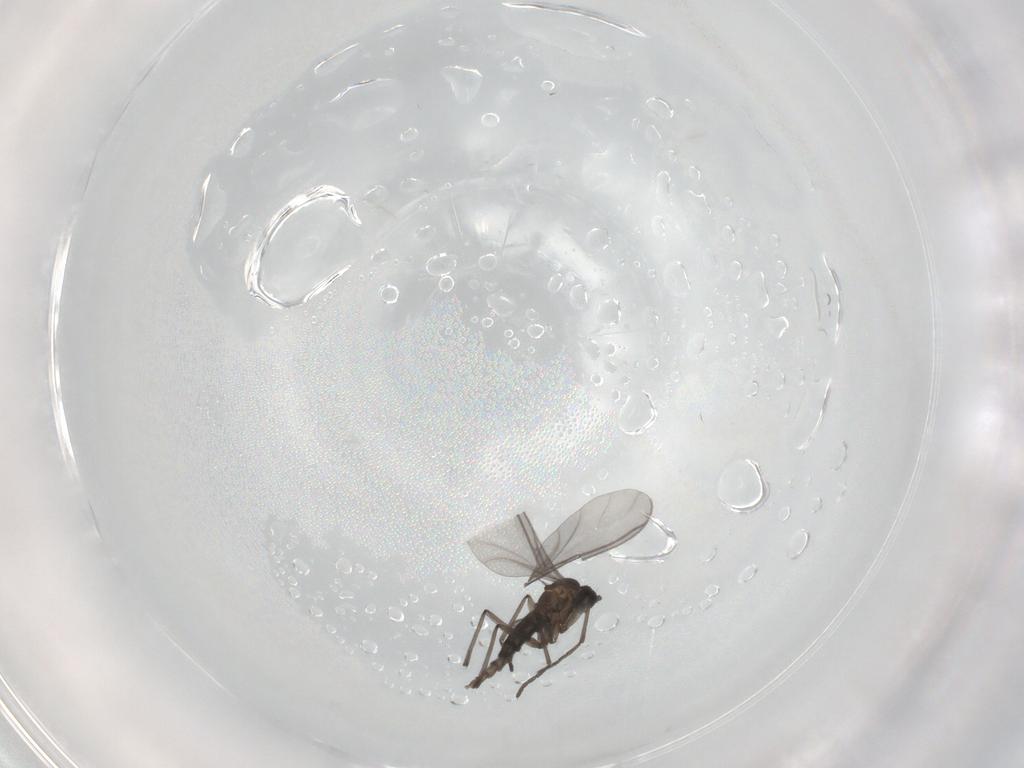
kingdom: Animalia
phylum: Arthropoda
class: Insecta
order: Diptera
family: Sciaridae
